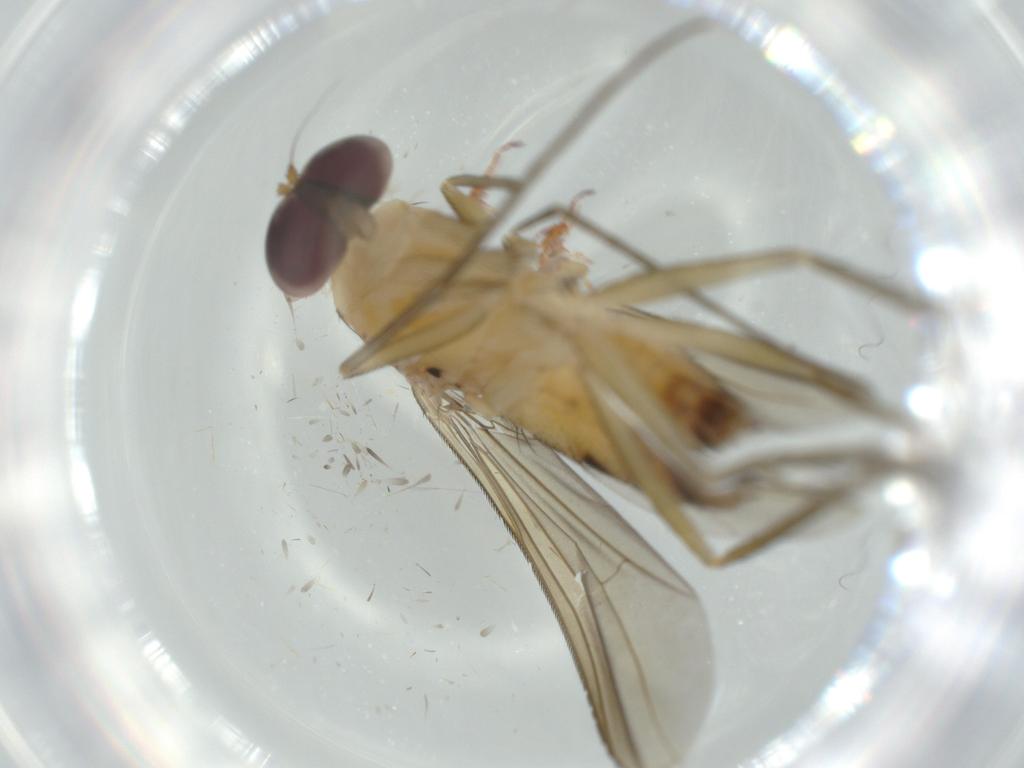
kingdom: Animalia
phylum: Arthropoda
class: Insecta
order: Diptera
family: Dolichopodidae
